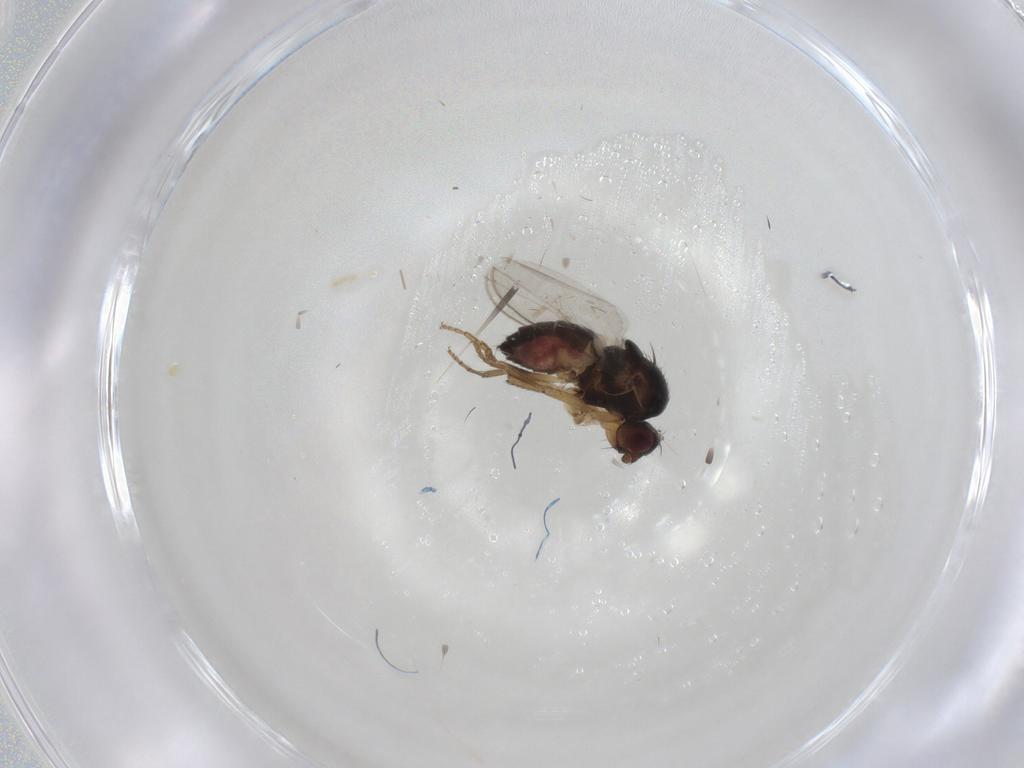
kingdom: Animalia
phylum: Arthropoda
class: Insecta
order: Diptera
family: Sphaeroceridae
